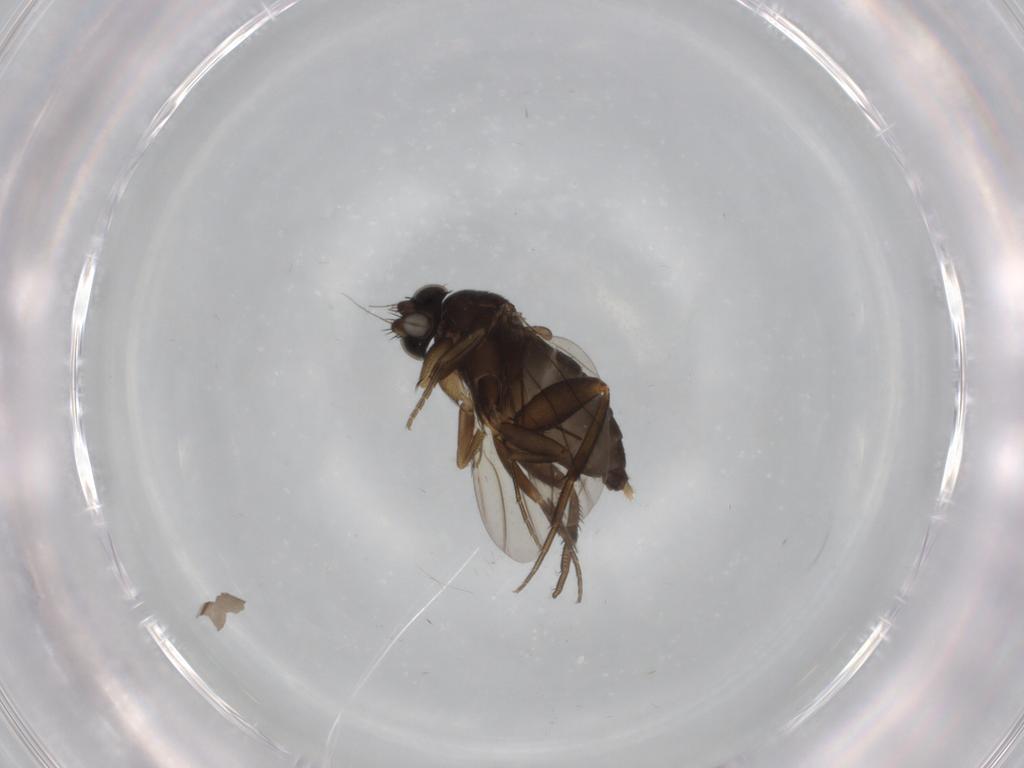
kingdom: Animalia
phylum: Arthropoda
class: Insecta
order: Diptera
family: Phoridae
